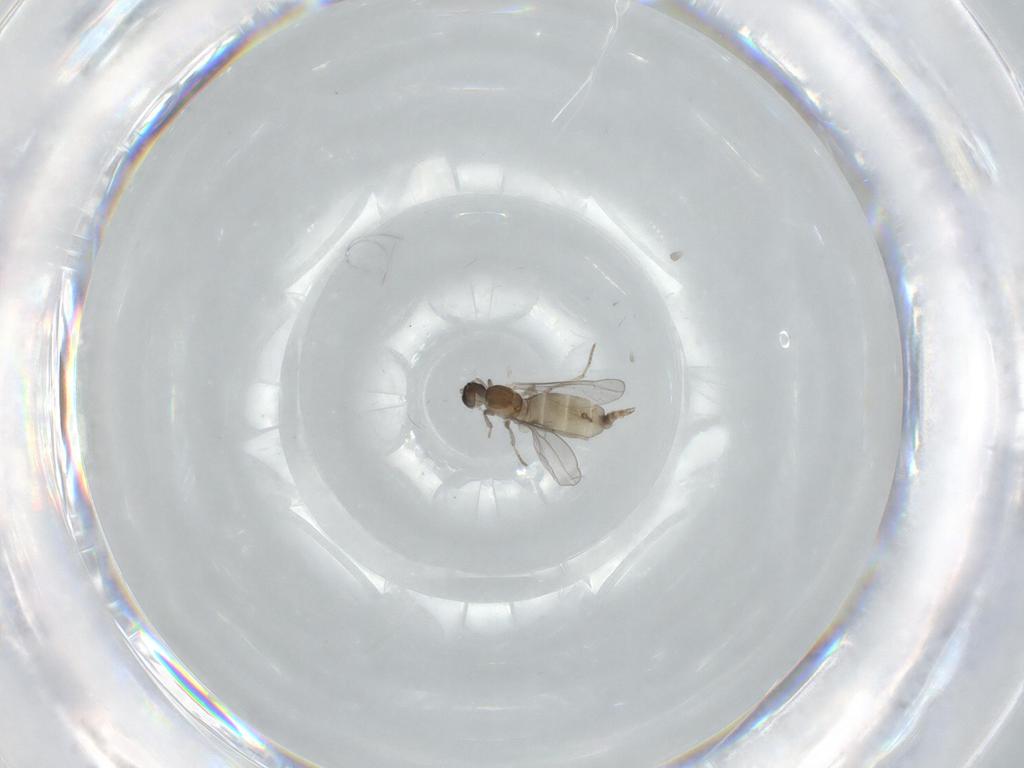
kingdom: Animalia
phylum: Arthropoda
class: Insecta
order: Diptera
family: Cecidomyiidae
